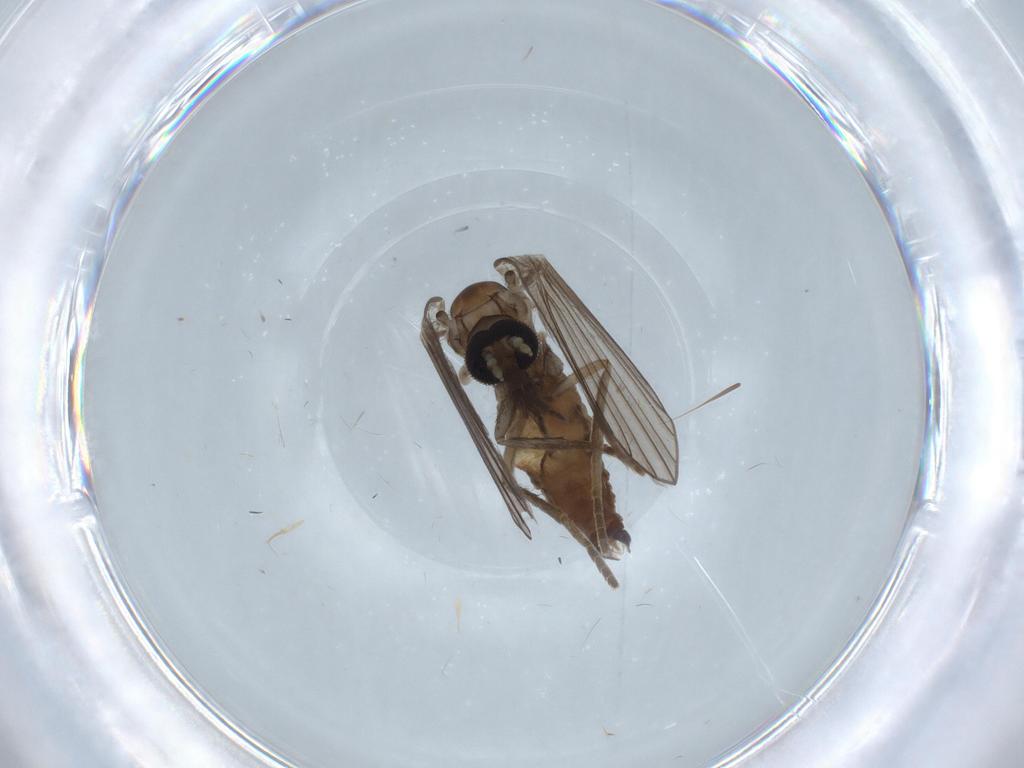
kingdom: Animalia
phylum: Arthropoda
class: Insecta
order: Diptera
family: Drosophilidae
